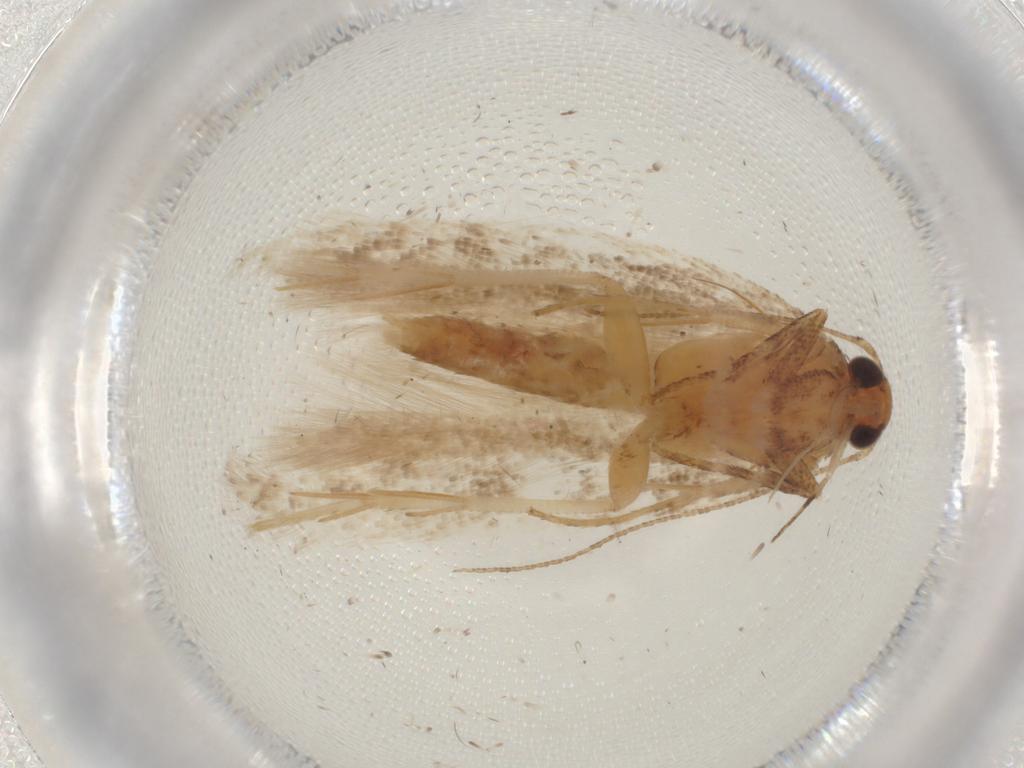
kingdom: Animalia
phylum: Arthropoda
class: Insecta
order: Lepidoptera
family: Gelechiidae
